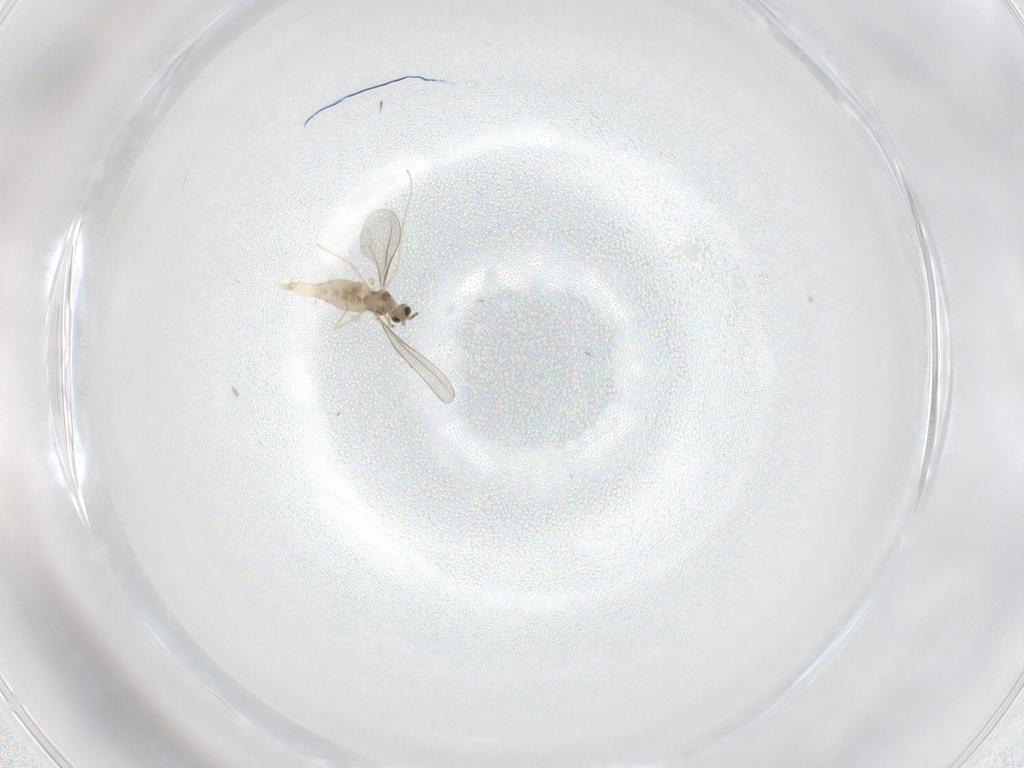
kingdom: Animalia
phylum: Arthropoda
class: Insecta
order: Diptera
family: Cecidomyiidae
